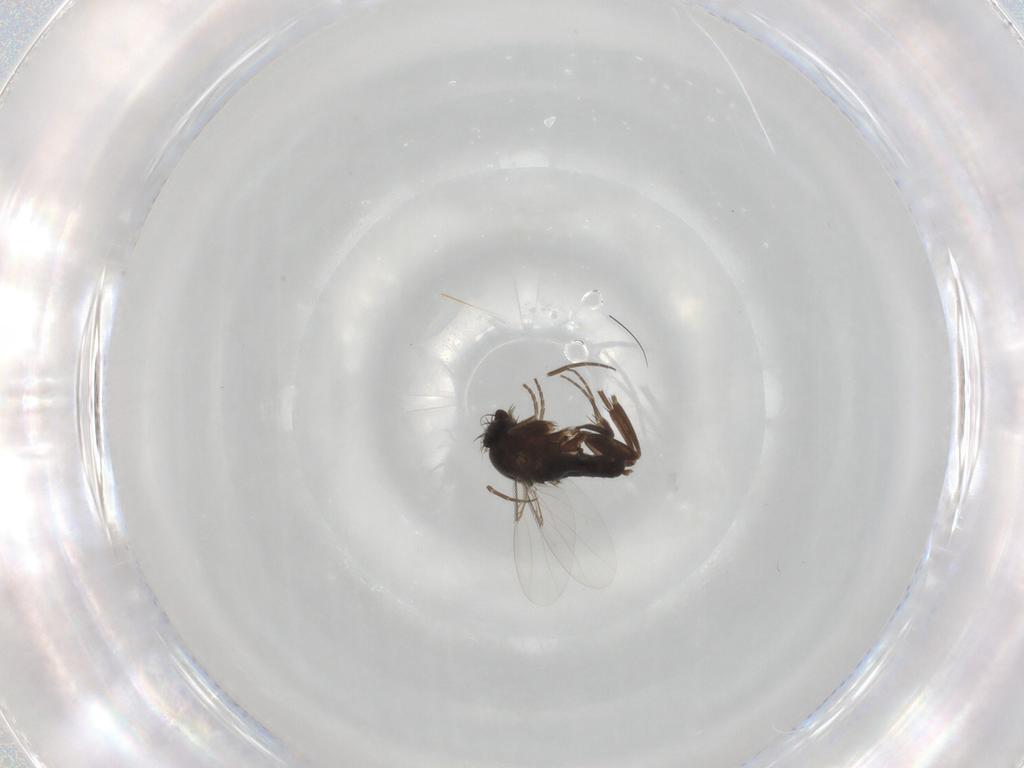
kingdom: Animalia
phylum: Arthropoda
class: Insecta
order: Diptera
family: Phoridae
